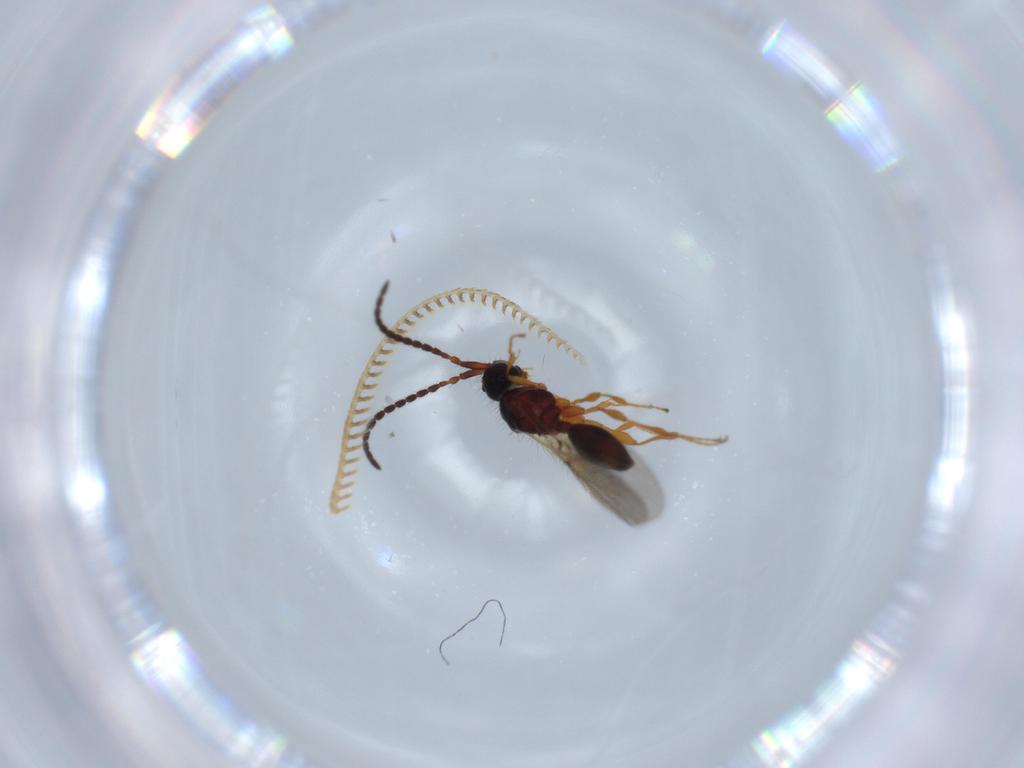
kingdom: Animalia
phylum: Arthropoda
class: Insecta
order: Hymenoptera
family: Diapriidae
